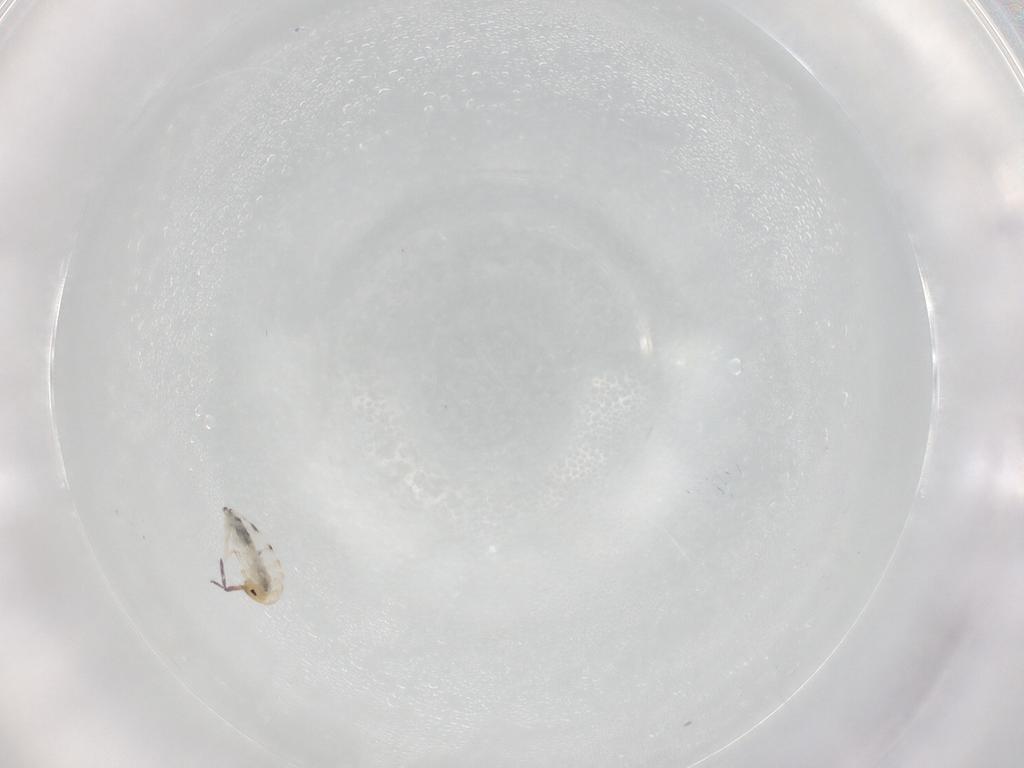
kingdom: Animalia
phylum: Arthropoda
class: Collembola
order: Entomobryomorpha
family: Entomobryidae
